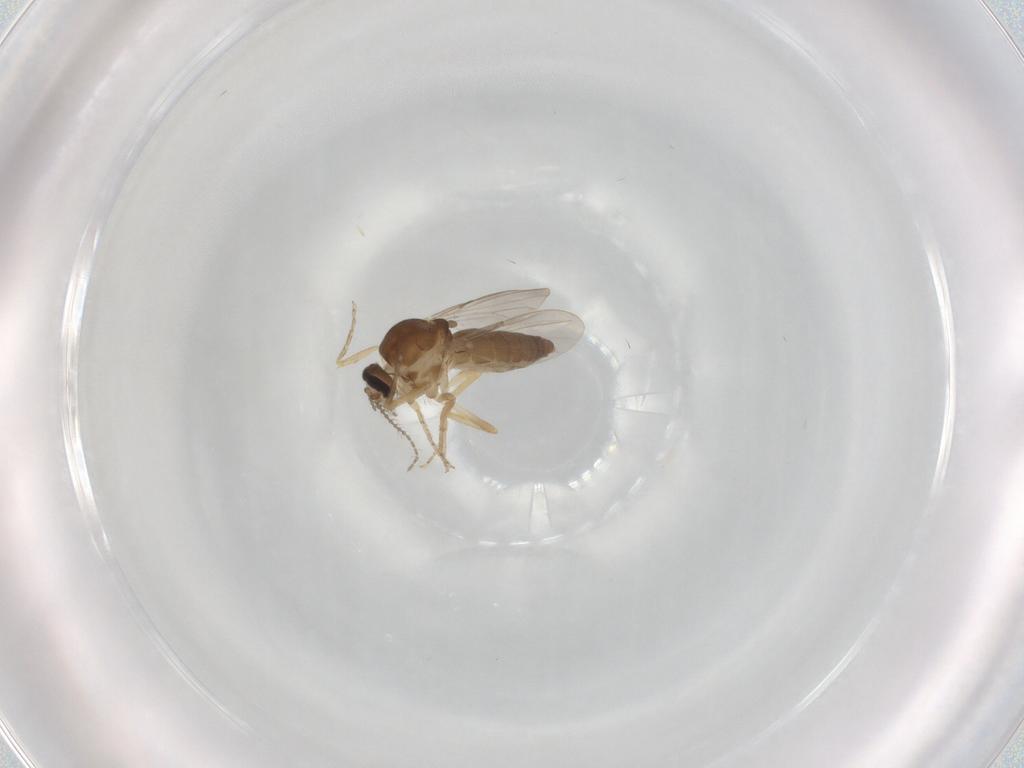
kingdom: Animalia
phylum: Arthropoda
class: Insecta
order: Diptera
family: Ceratopogonidae
